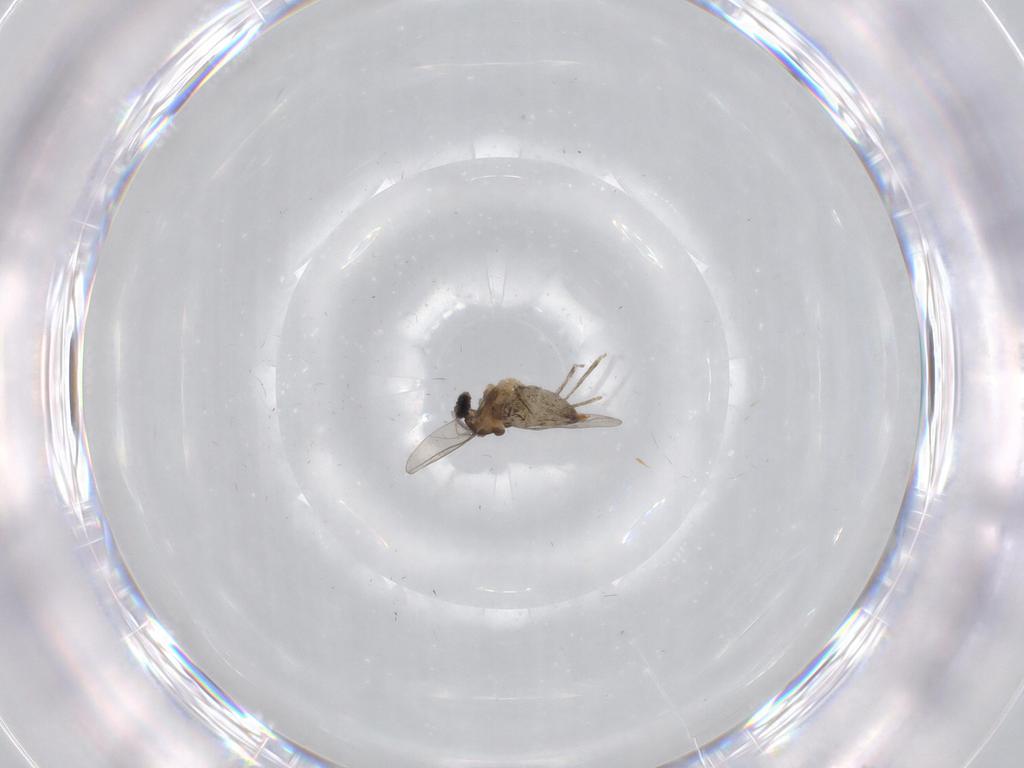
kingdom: Animalia
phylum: Arthropoda
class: Insecta
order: Diptera
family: Cecidomyiidae
